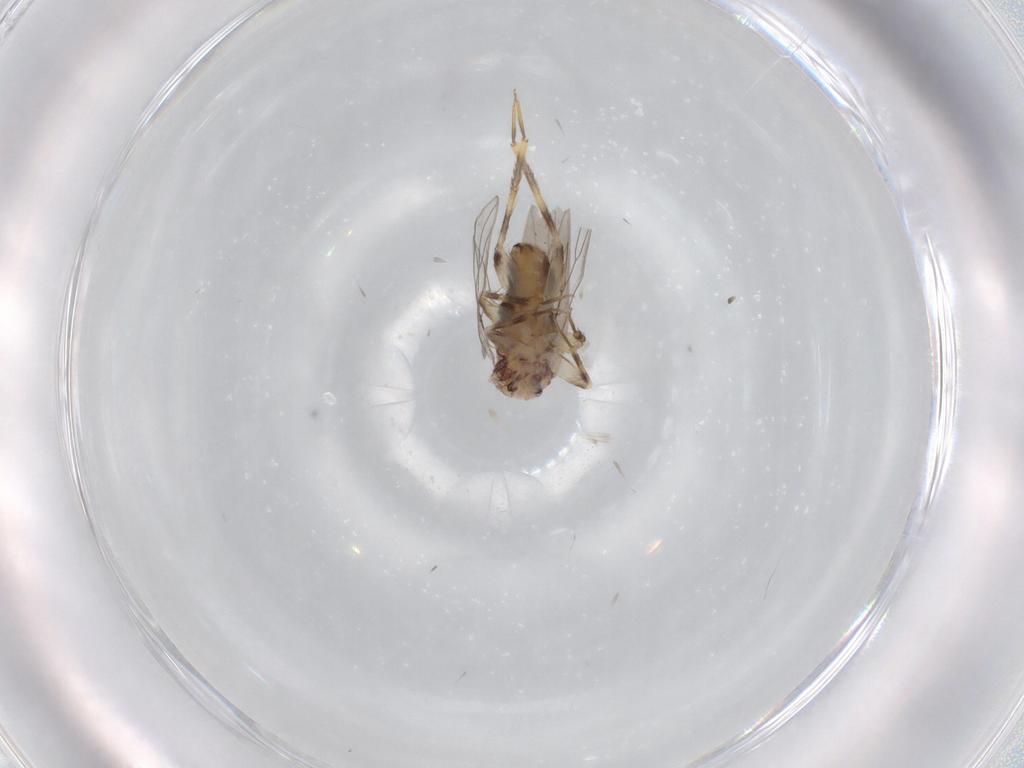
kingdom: Animalia
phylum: Arthropoda
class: Insecta
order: Psocodea
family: Lepidopsocidae
